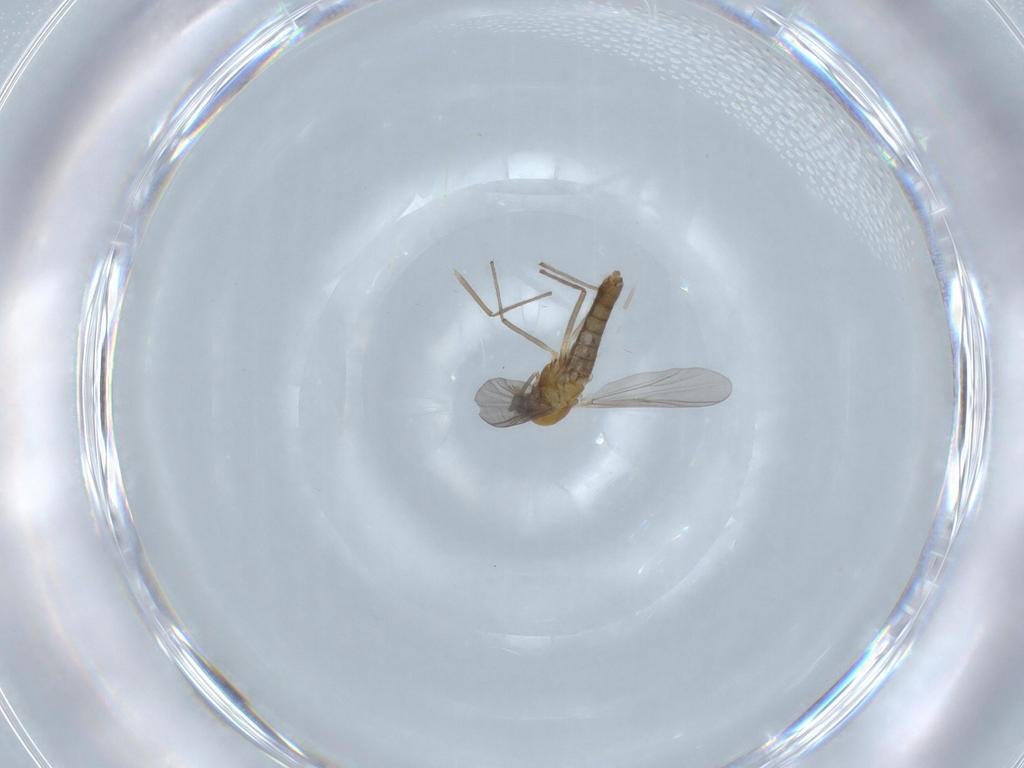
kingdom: Animalia
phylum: Arthropoda
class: Insecta
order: Diptera
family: Chironomidae
